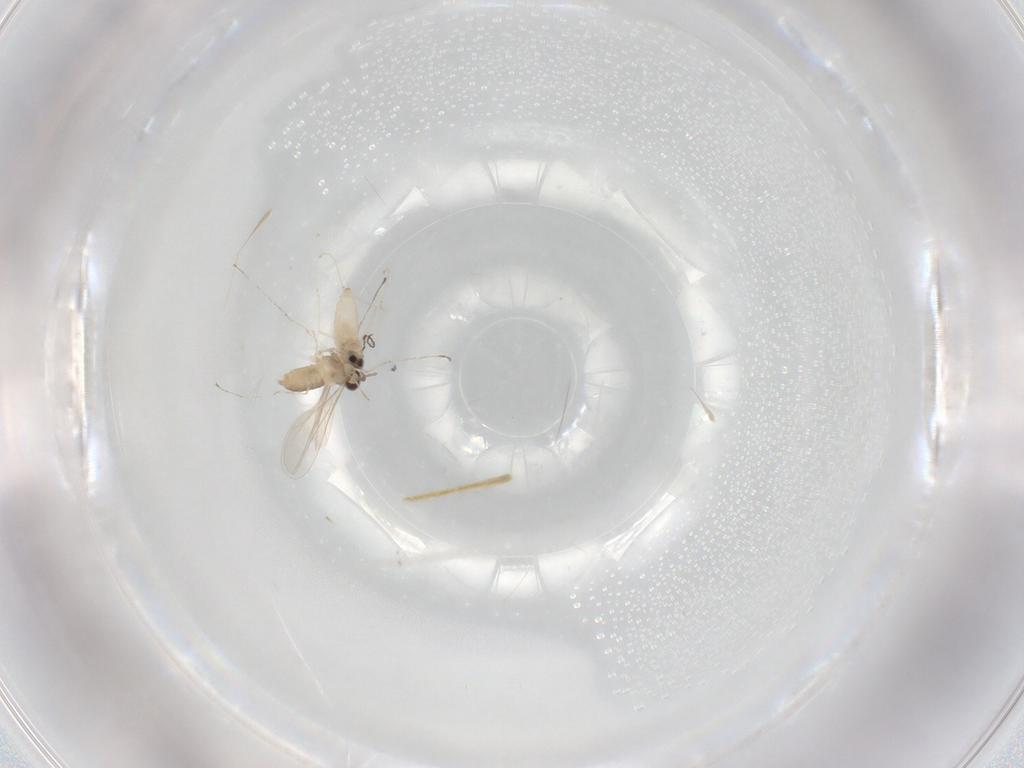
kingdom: Animalia
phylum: Arthropoda
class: Insecta
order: Diptera
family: Cecidomyiidae
